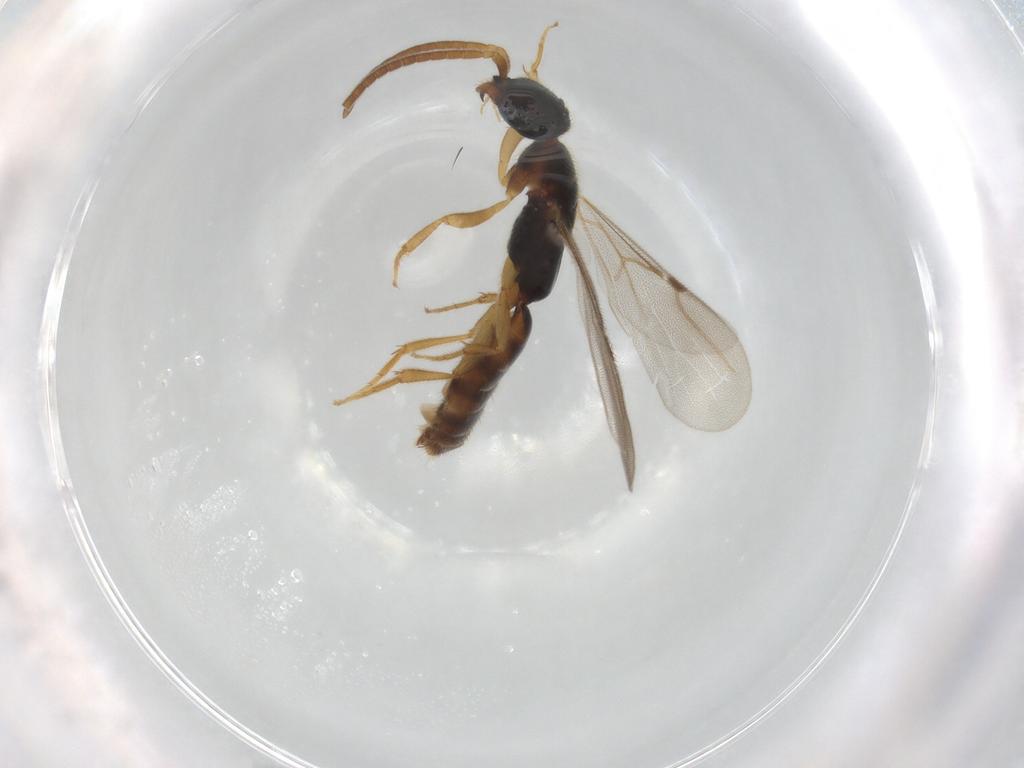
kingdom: Animalia
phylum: Arthropoda
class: Insecta
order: Hymenoptera
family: Bethylidae
